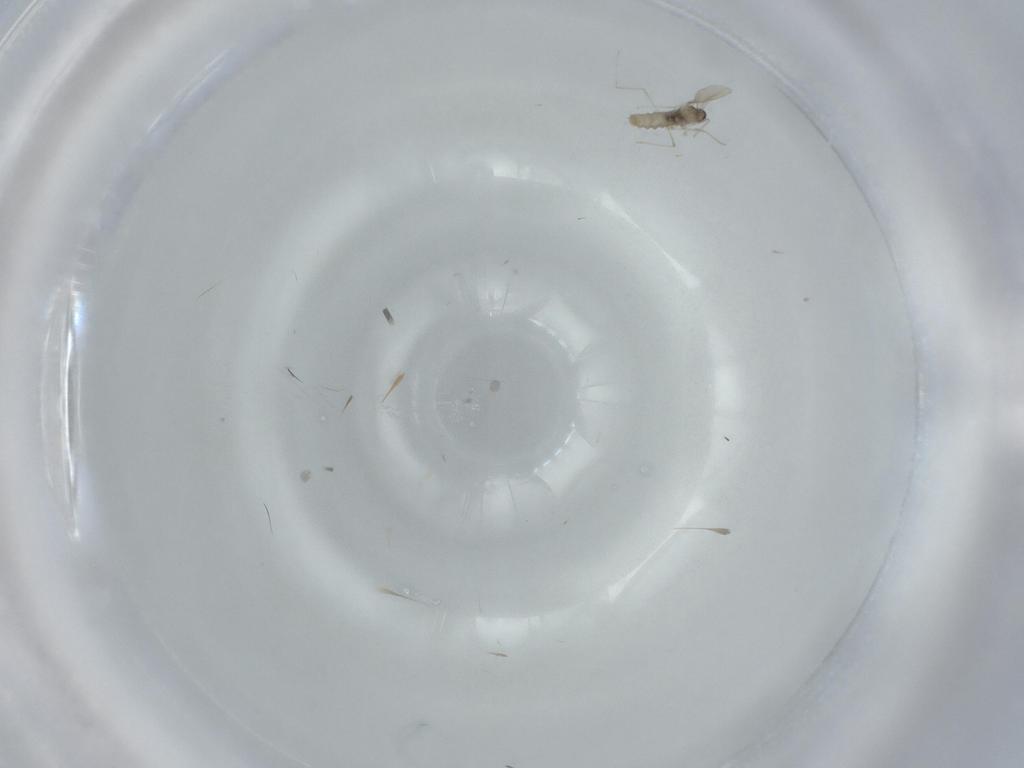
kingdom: Animalia
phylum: Arthropoda
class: Insecta
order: Diptera
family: Cecidomyiidae
